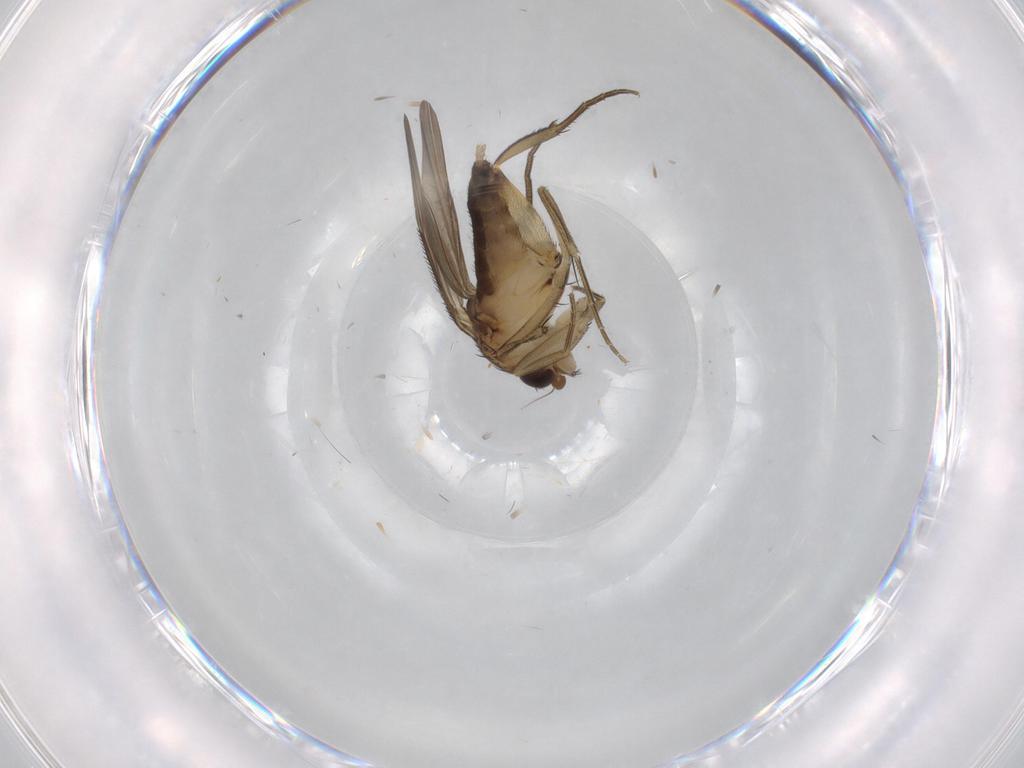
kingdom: Animalia
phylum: Arthropoda
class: Insecta
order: Diptera
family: Phoridae
